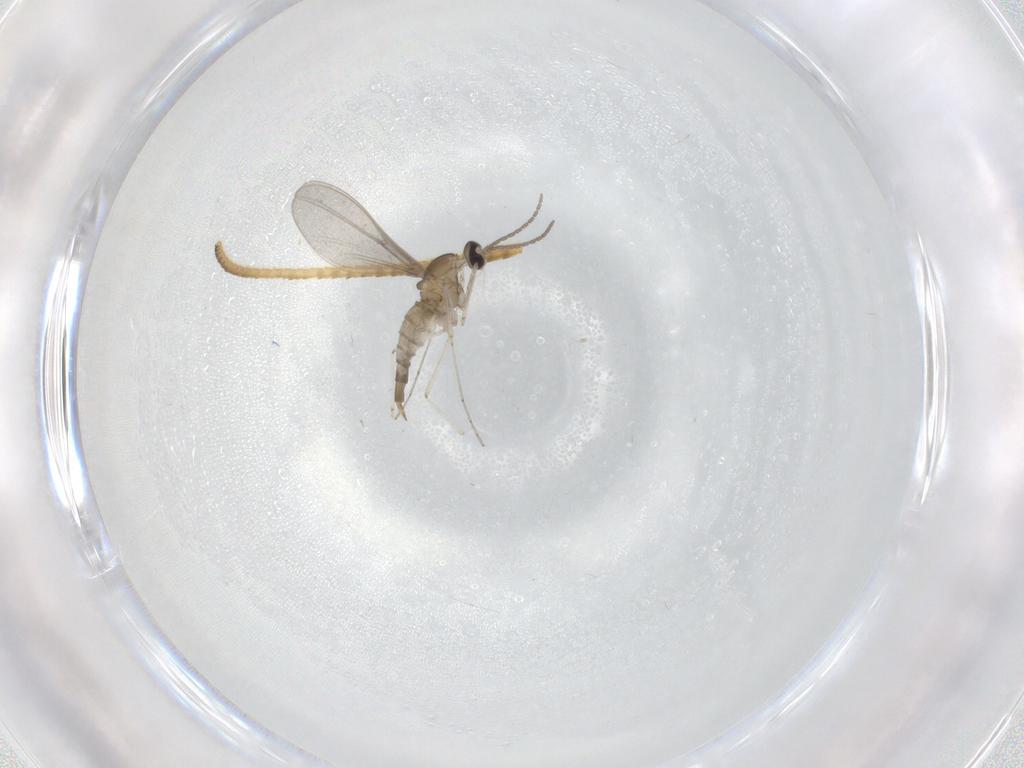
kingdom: Animalia
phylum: Arthropoda
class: Insecta
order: Diptera
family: Cecidomyiidae
